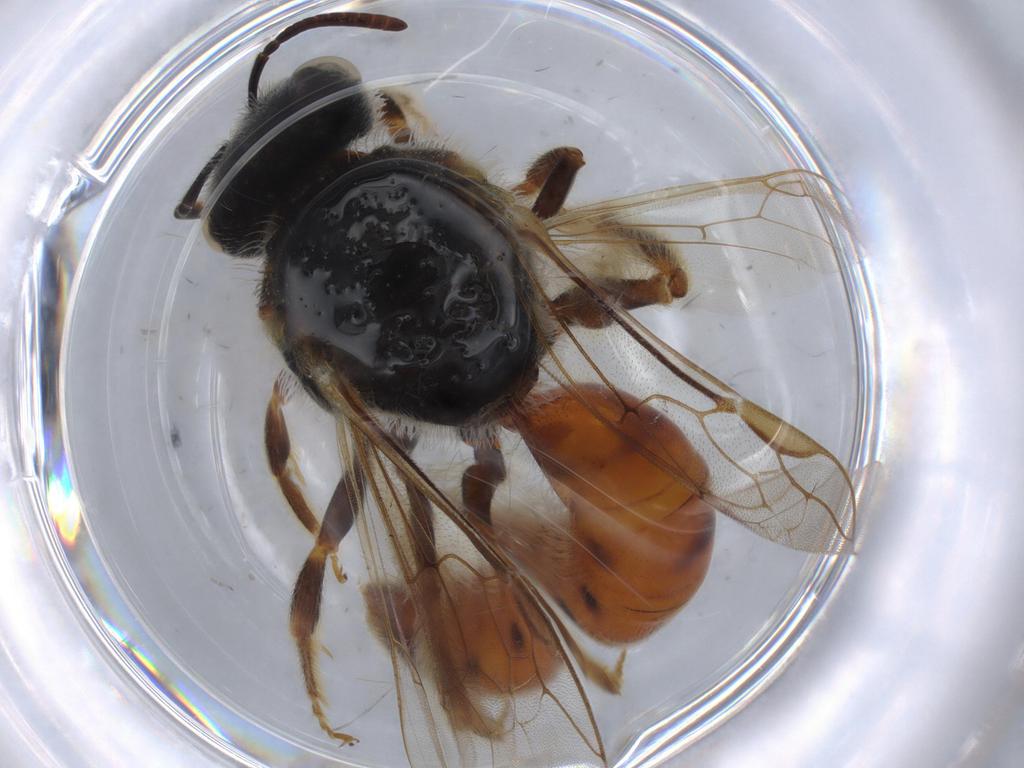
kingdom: Animalia
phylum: Arthropoda
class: Insecta
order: Hymenoptera
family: Halictidae
